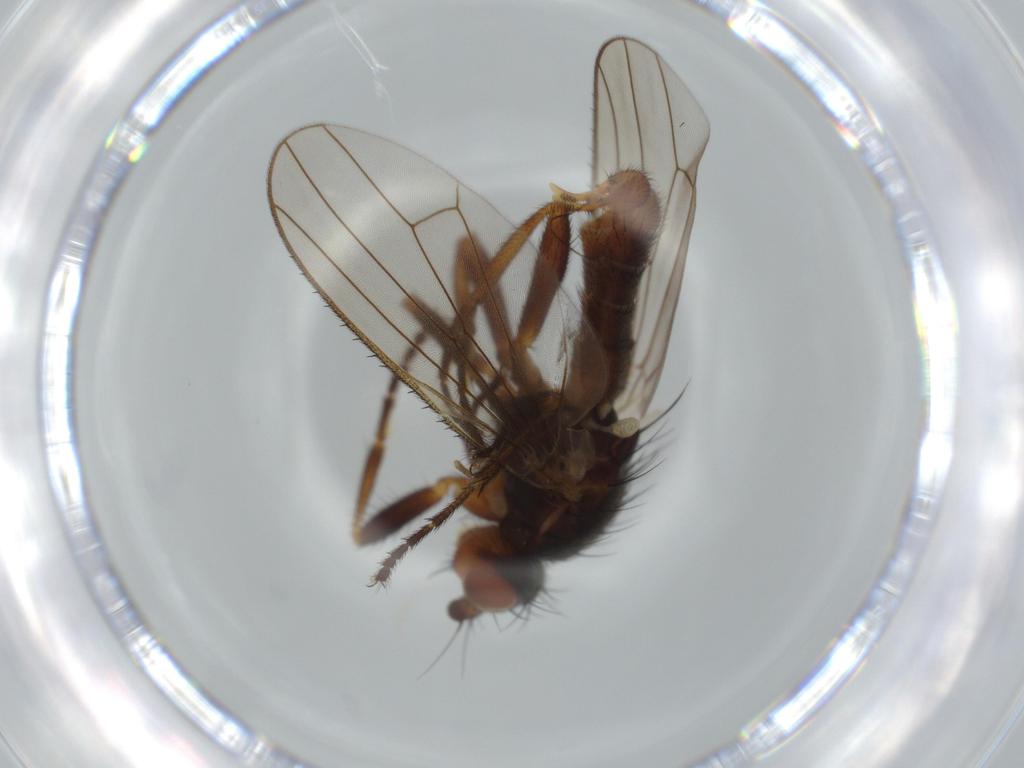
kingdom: Animalia
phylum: Arthropoda
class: Insecta
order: Diptera
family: Heleomyzidae
